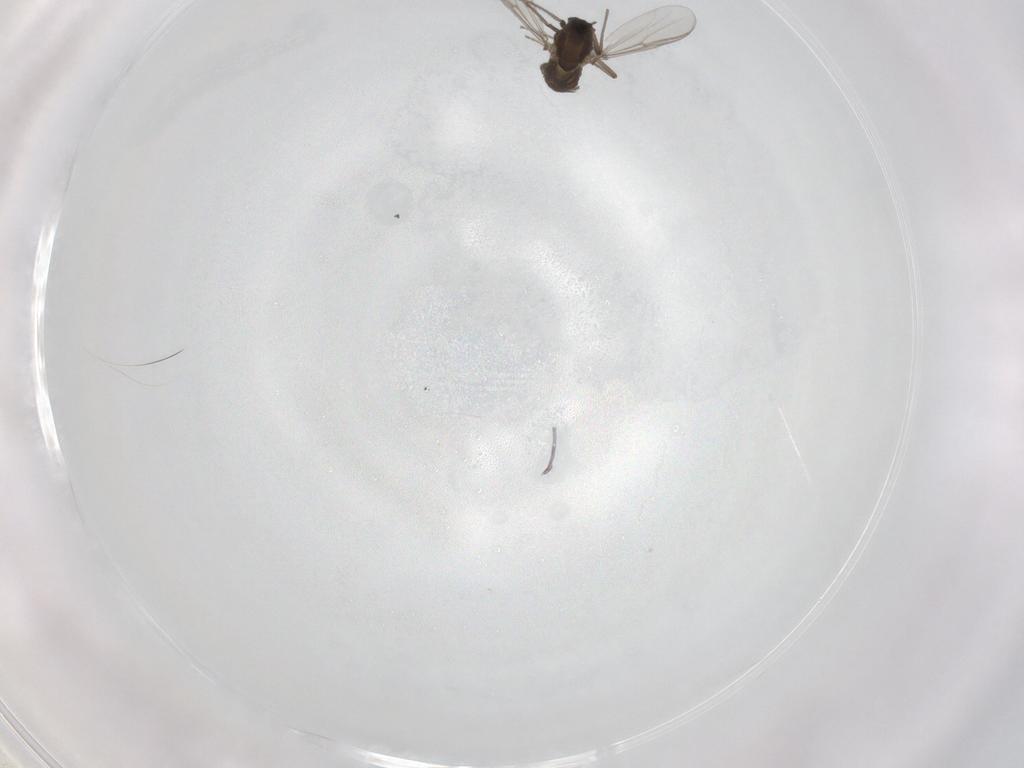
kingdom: Animalia
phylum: Arthropoda
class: Insecta
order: Diptera
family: Chironomidae
